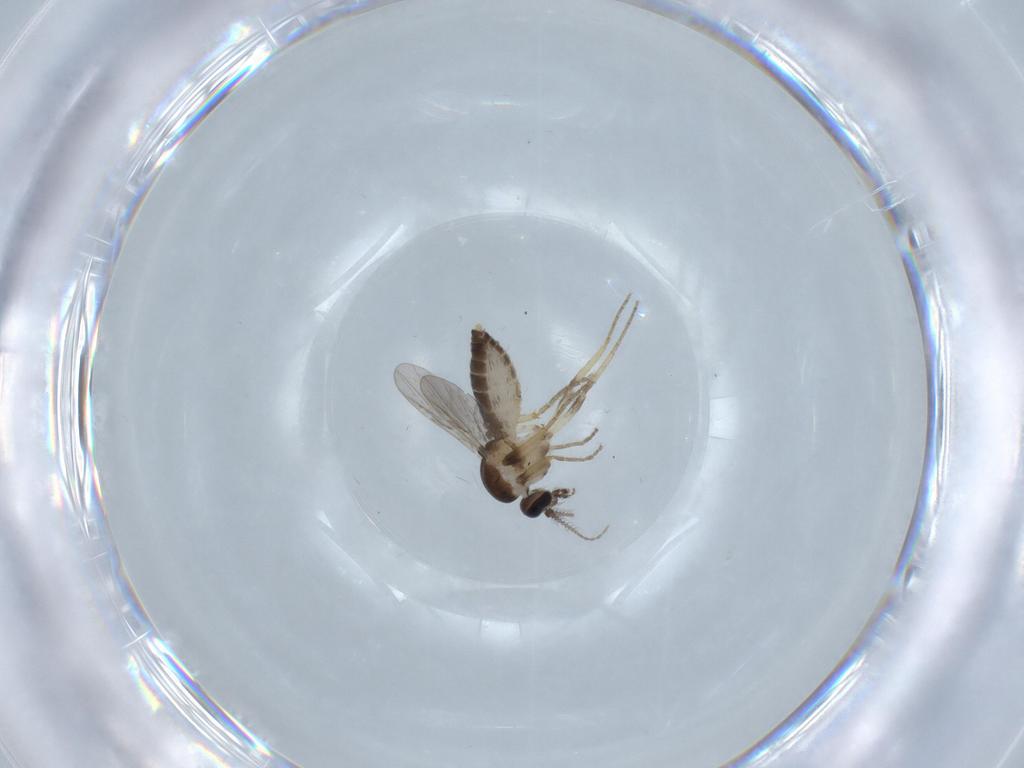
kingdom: Animalia
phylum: Arthropoda
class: Insecta
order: Diptera
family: Ceratopogonidae
